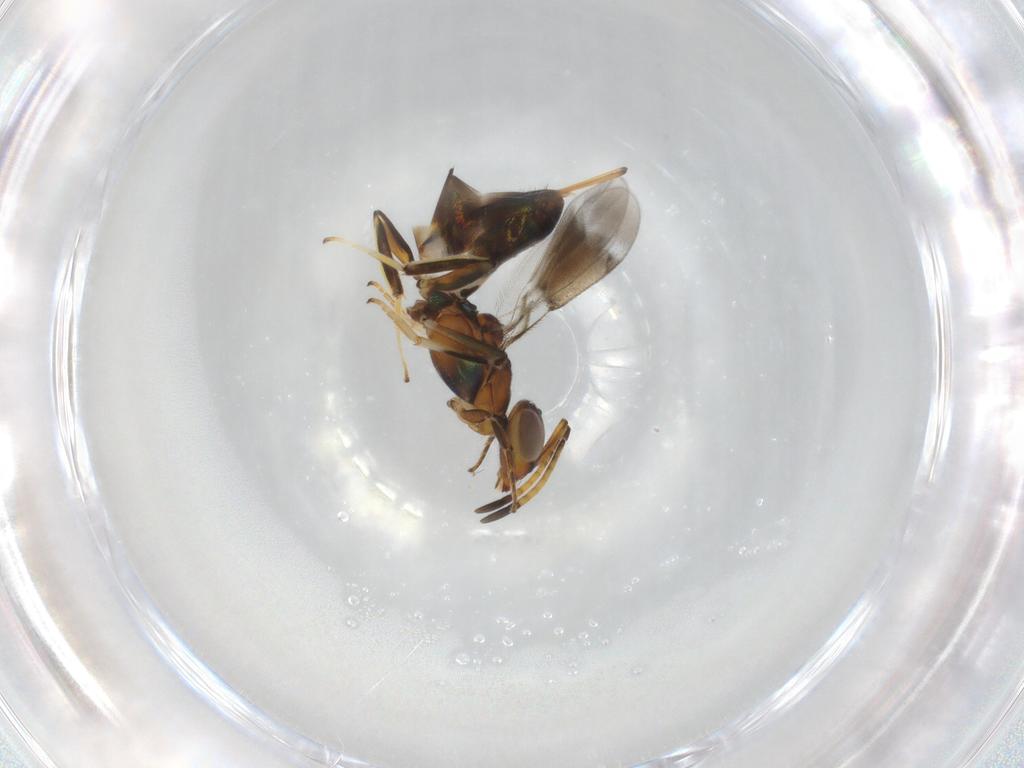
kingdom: Animalia
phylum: Arthropoda
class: Insecta
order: Hymenoptera
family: Eupelmidae
